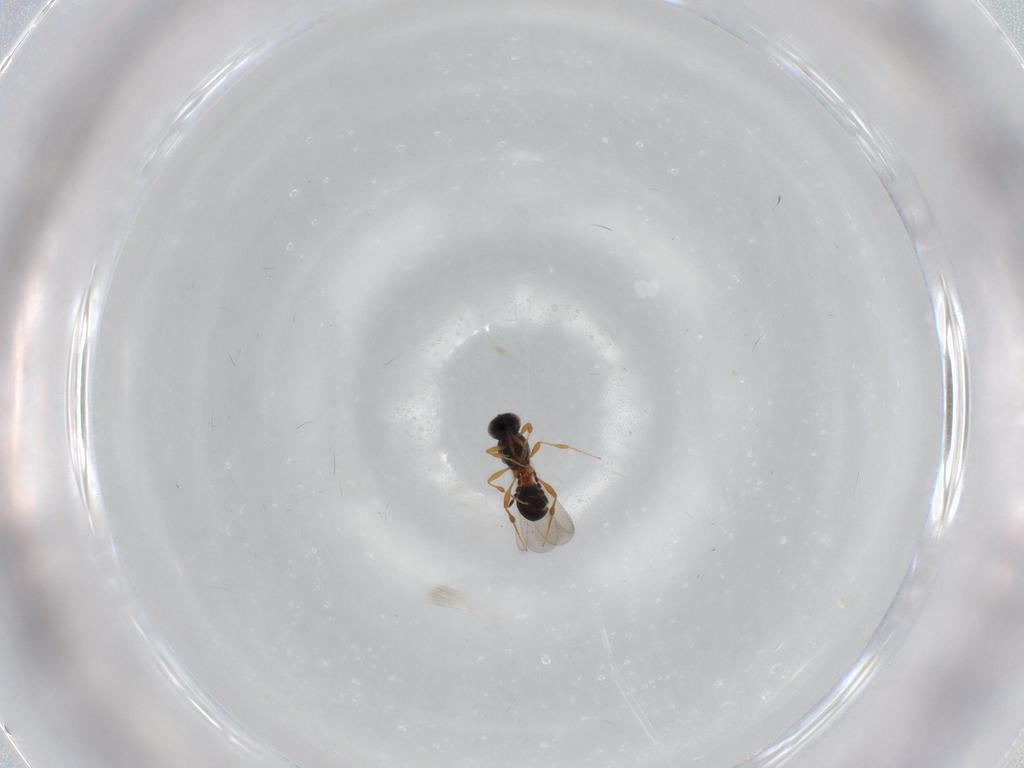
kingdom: Animalia
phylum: Arthropoda
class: Insecta
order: Hymenoptera
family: Platygastridae
